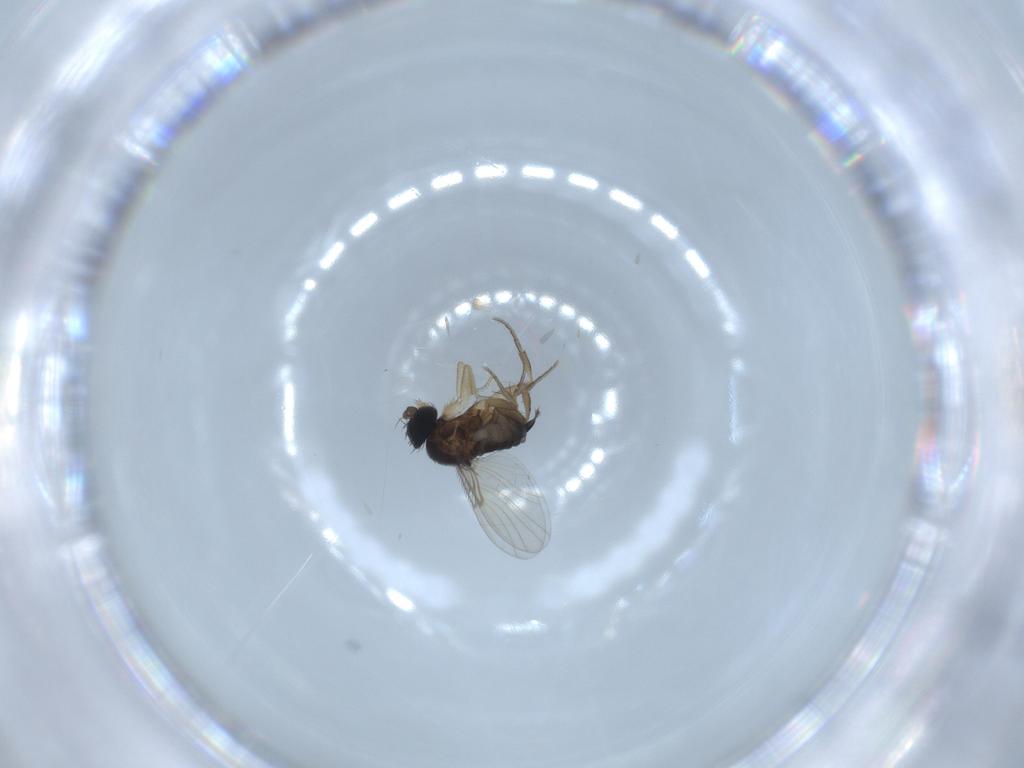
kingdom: Animalia
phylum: Arthropoda
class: Insecta
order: Diptera
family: Phoridae
